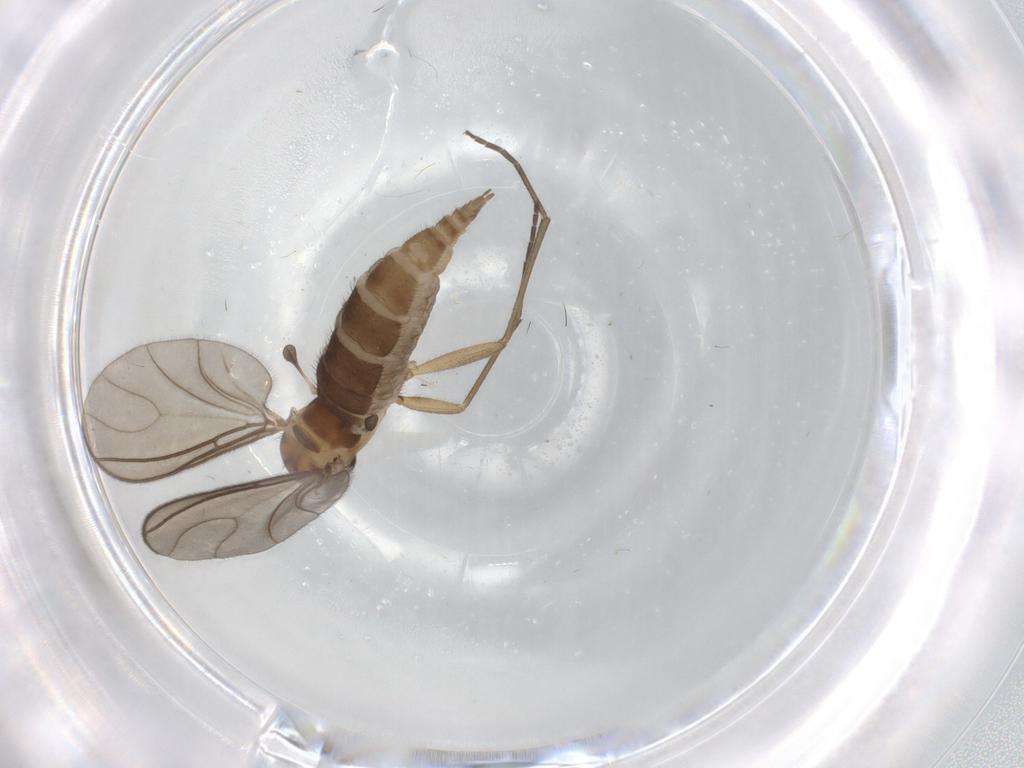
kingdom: Animalia
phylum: Arthropoda
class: Insecta
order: Diptera
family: Sciaridae
